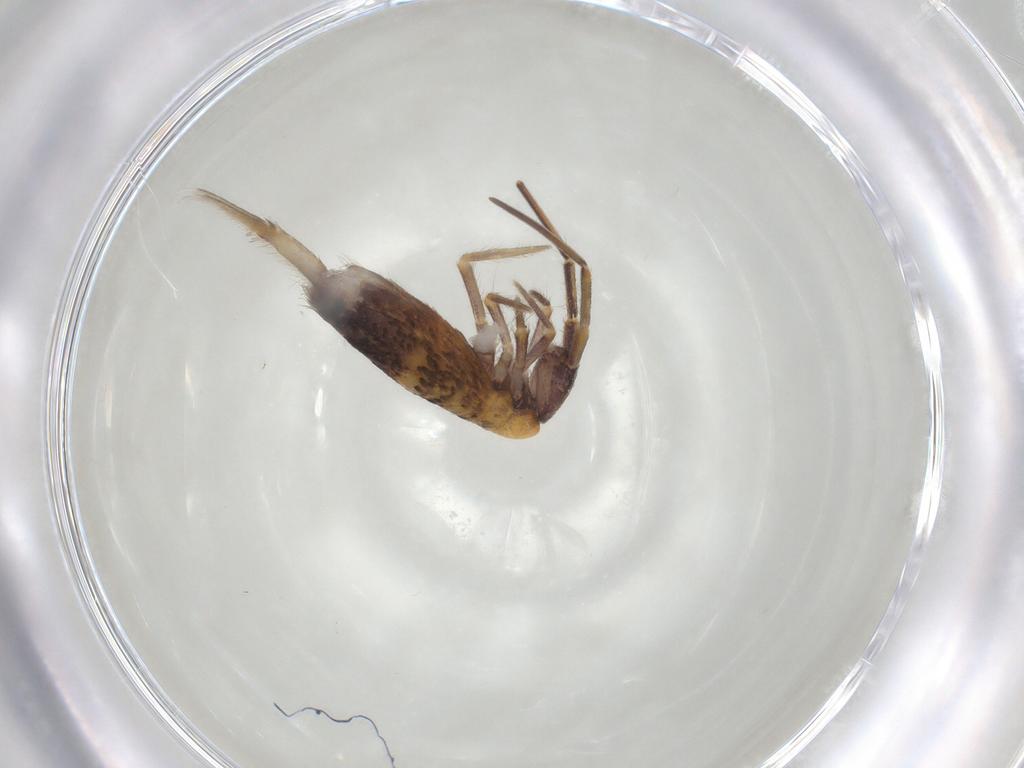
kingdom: Animalia
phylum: Arthropoda
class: Collembola
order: Entomobryomorpha
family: Entomobryidae
